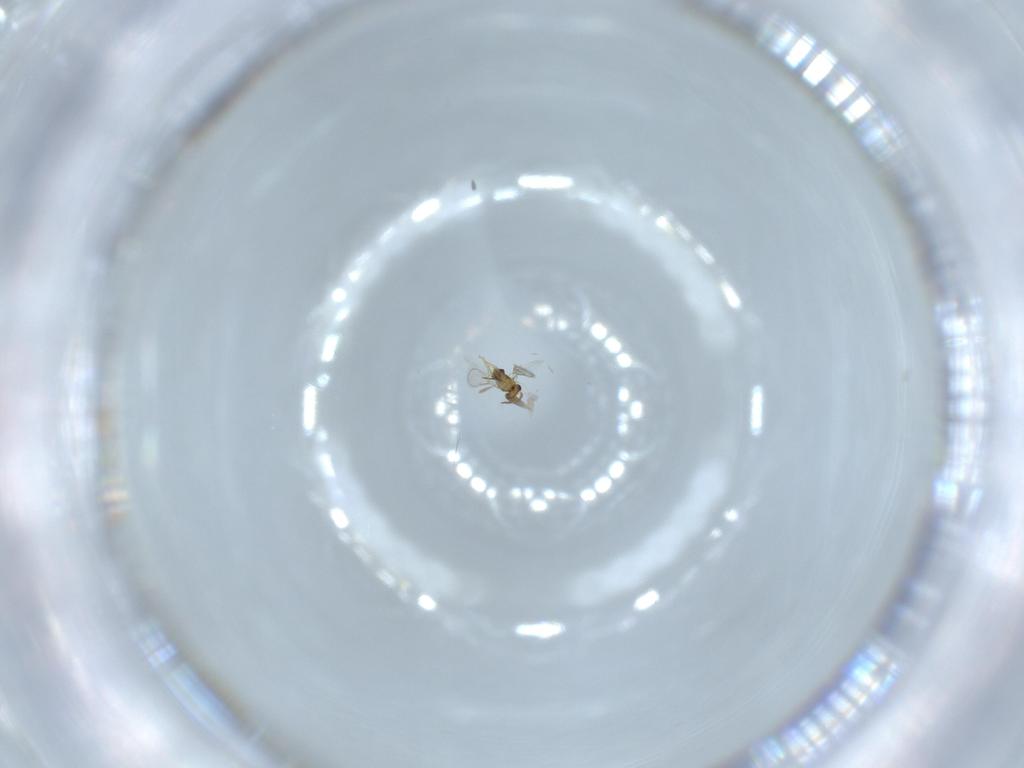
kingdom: Animalia
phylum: Arthropoda
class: Insecta
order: Hymenoptera
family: Aphelinidae
